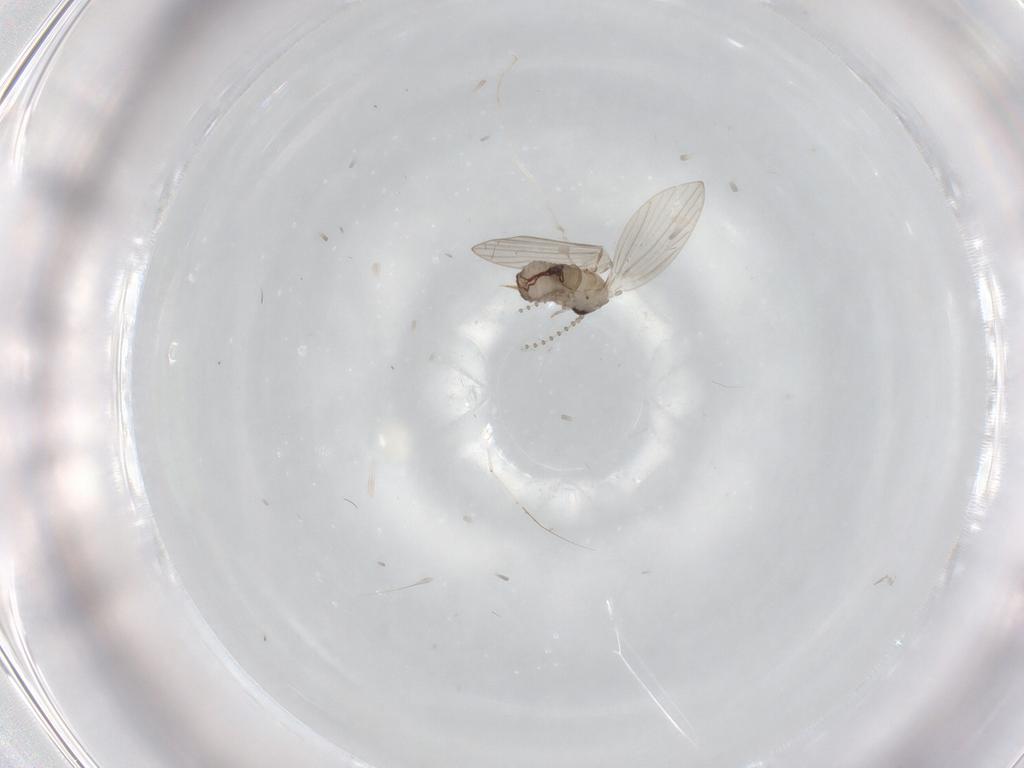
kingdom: Animalia
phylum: Arthropoda
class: Insecta
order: Diptera
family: Psychodidae
